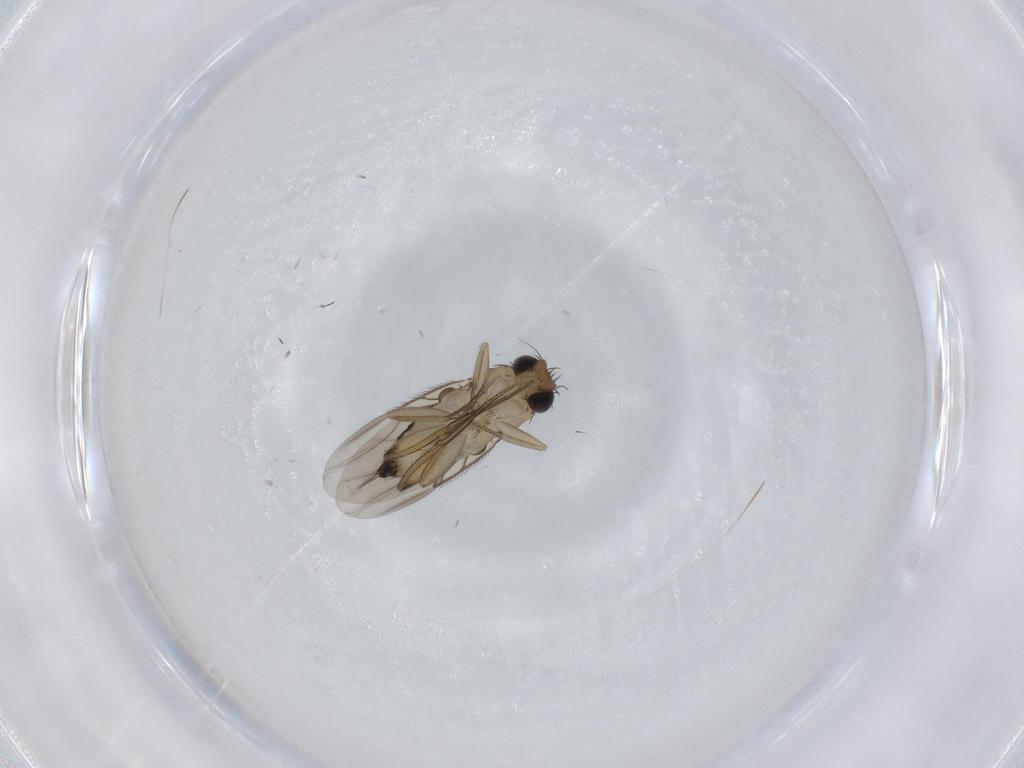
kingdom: Animalia
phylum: Arthropoda
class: Insecta
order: Diptera
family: Phoridae
